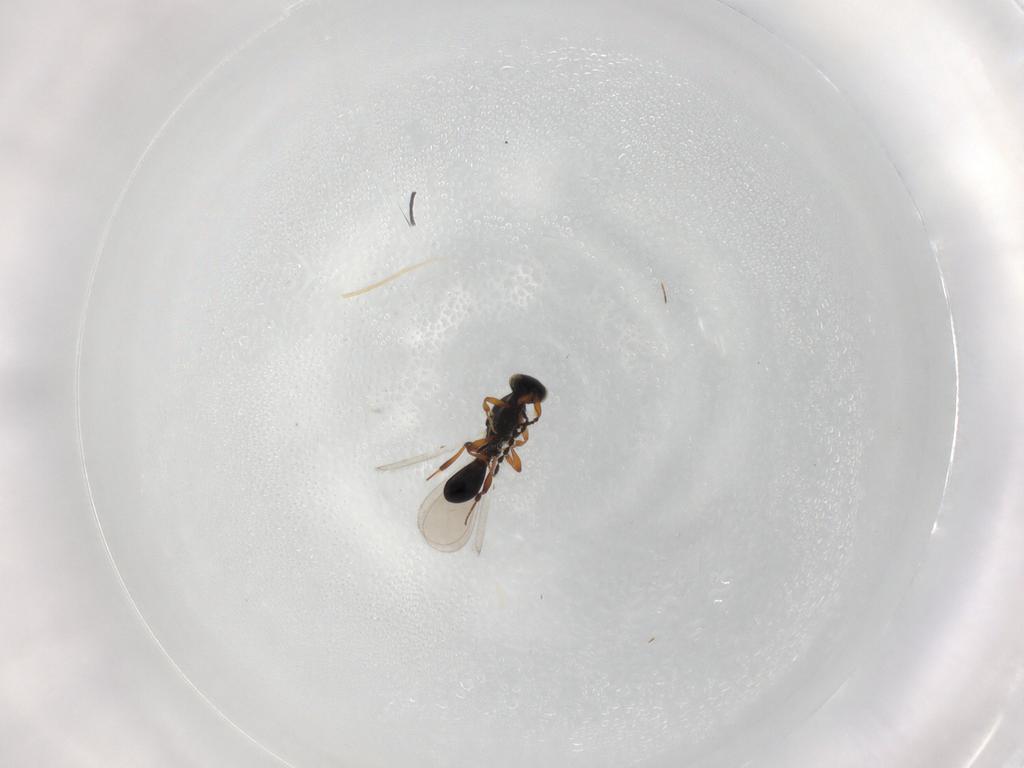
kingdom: Animalia
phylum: Arthropoda
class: Insecta
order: Hymenoptera
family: Platygastridae
